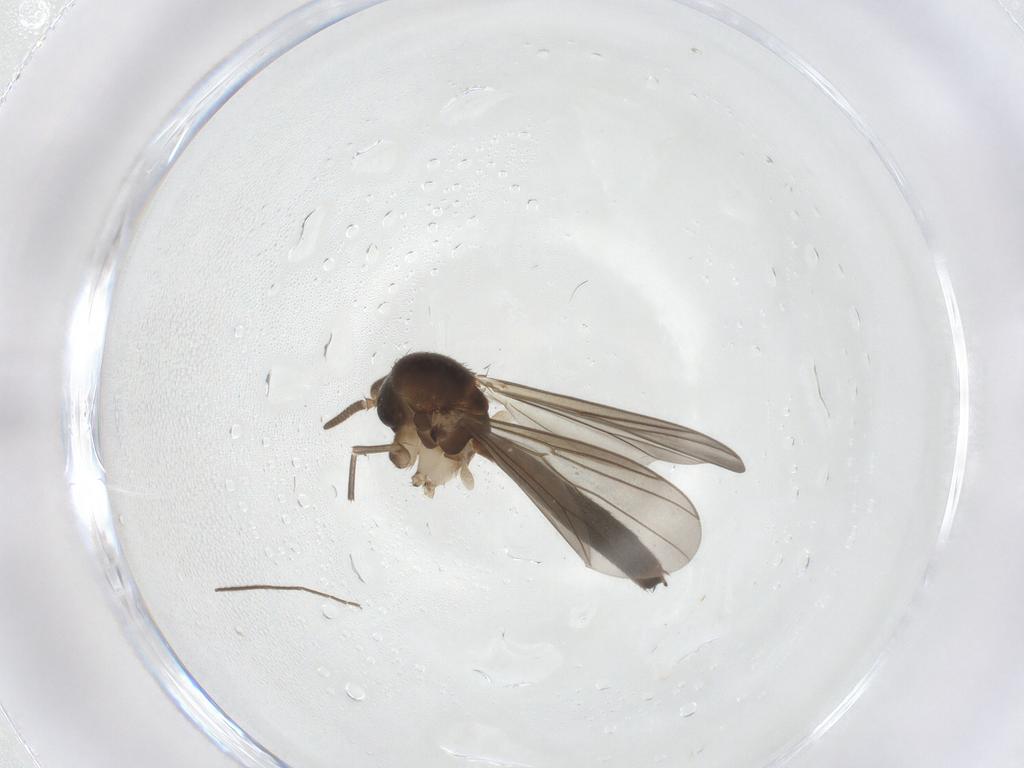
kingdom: Animalia
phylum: Arthropoda
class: Insecta
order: Diptera
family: Mycetophilidae
